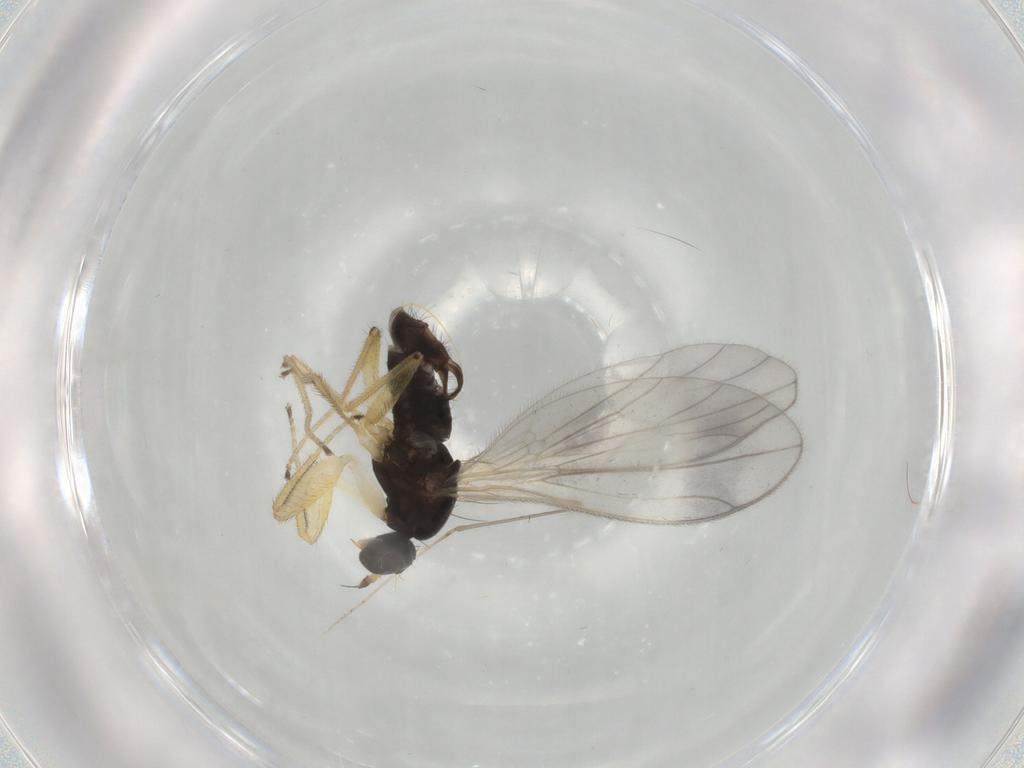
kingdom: Animalia
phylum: Arthropoda
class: Insecta
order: Diptera
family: Empididae
